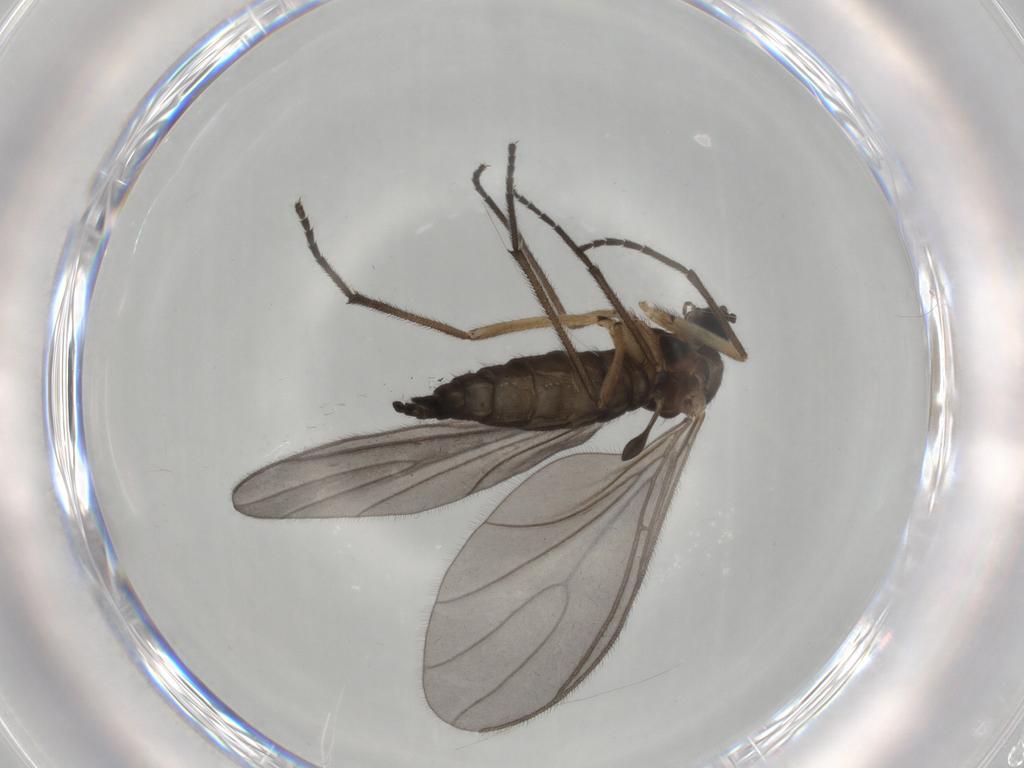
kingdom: Animalia
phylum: Arthropoda
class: Insecta
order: Diptera
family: Sciaridae
